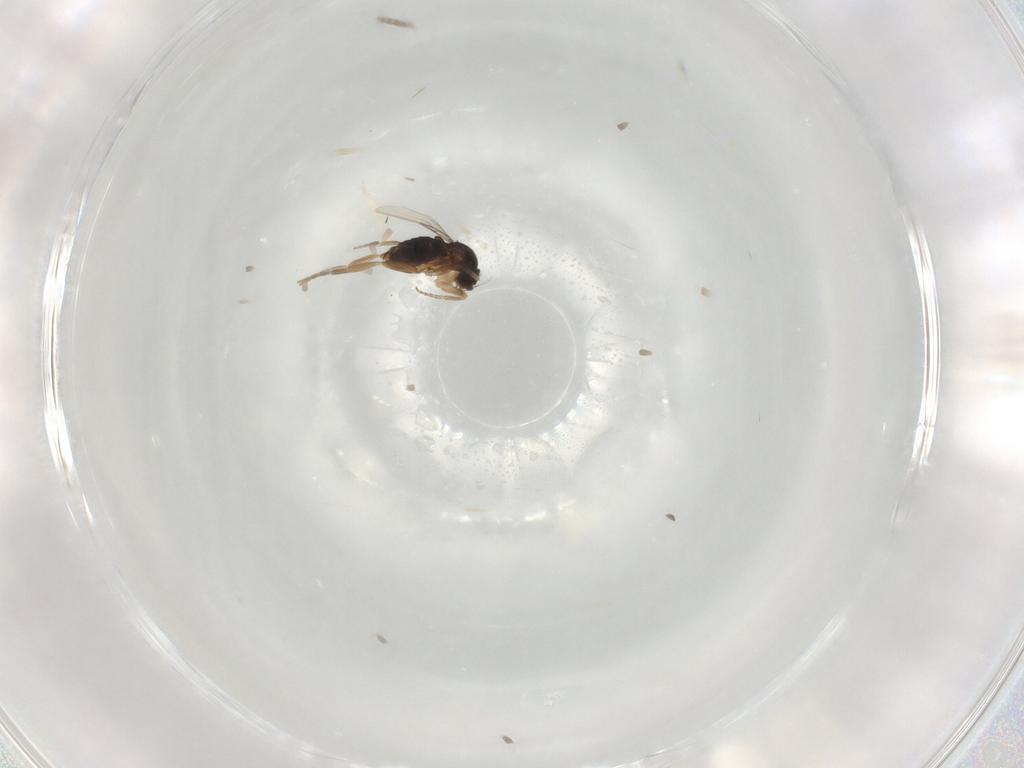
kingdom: Animalia
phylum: Arthropoda
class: Insecta
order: Diptera
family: Phoridae
